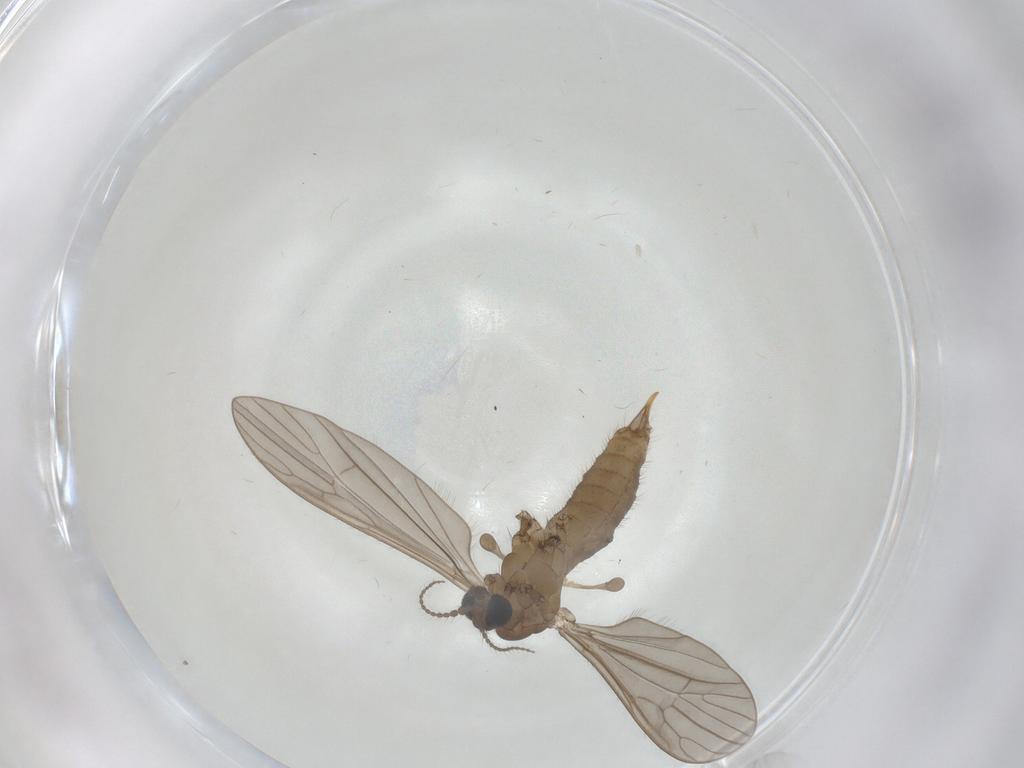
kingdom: Animalia
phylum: Arthropoda
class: Insecta
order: Diptera
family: Limoniidae
